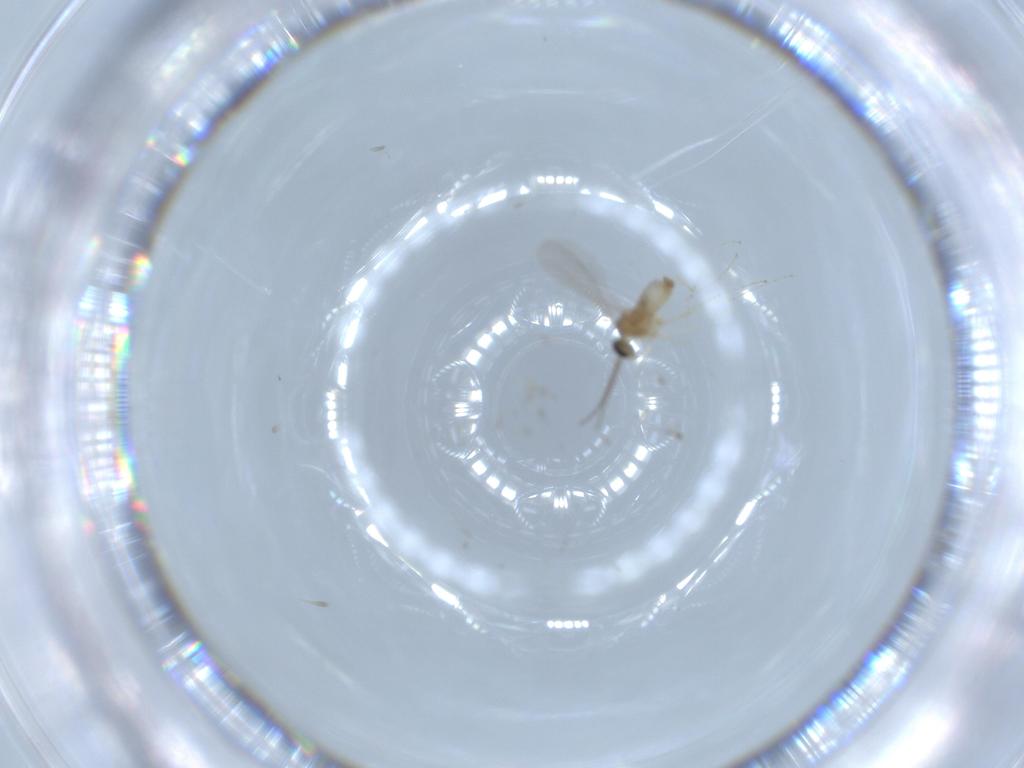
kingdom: Animalia
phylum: Arthropoda
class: Insecta
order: Diptera
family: Cecidomyiidae
